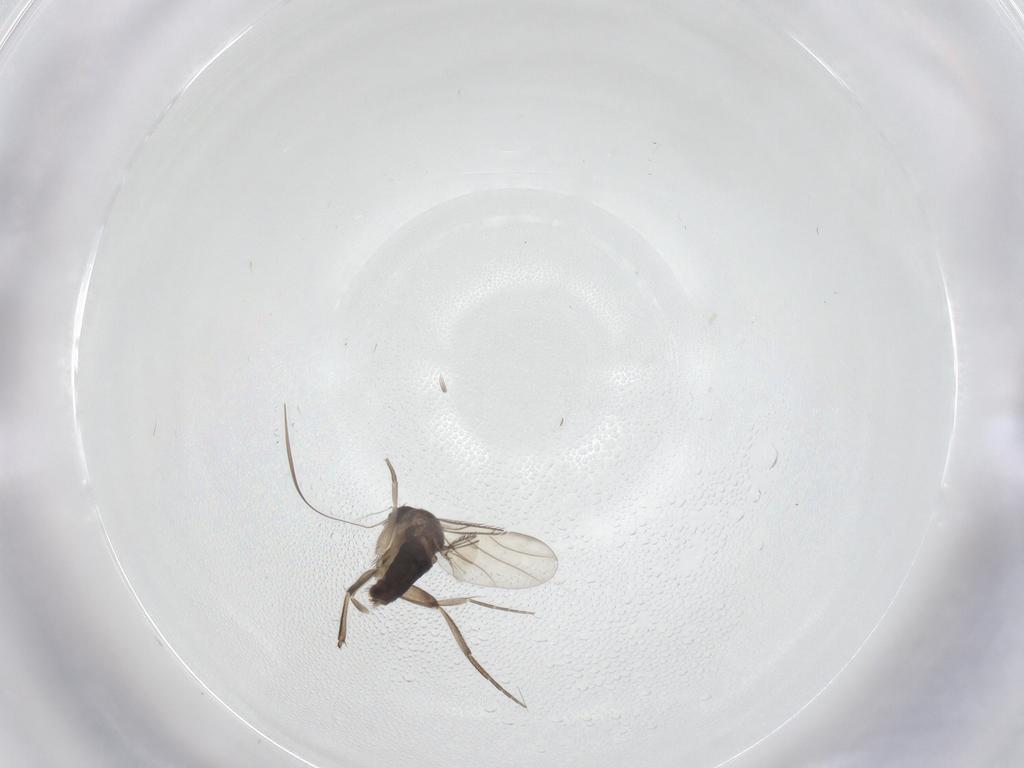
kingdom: Animalia
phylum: Arthropoda
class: Insecta
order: Diptera
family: Phoridae
